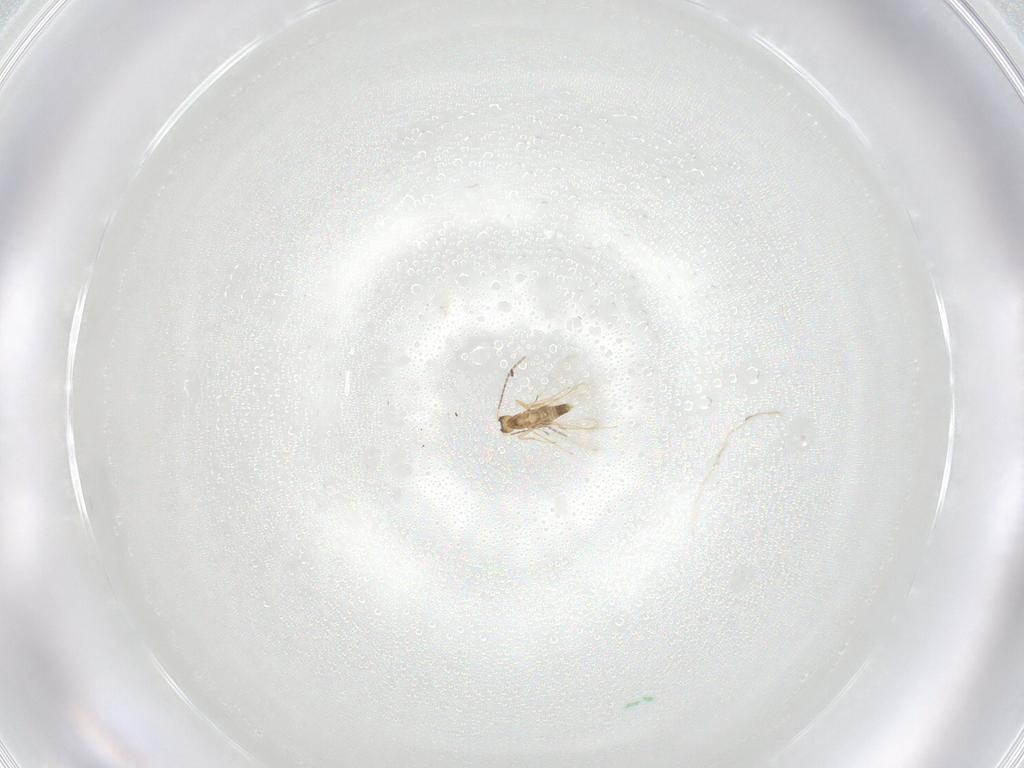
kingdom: Animalia
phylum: Arthropoda
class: Insecta
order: Hymenoptera
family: Mymaridae
